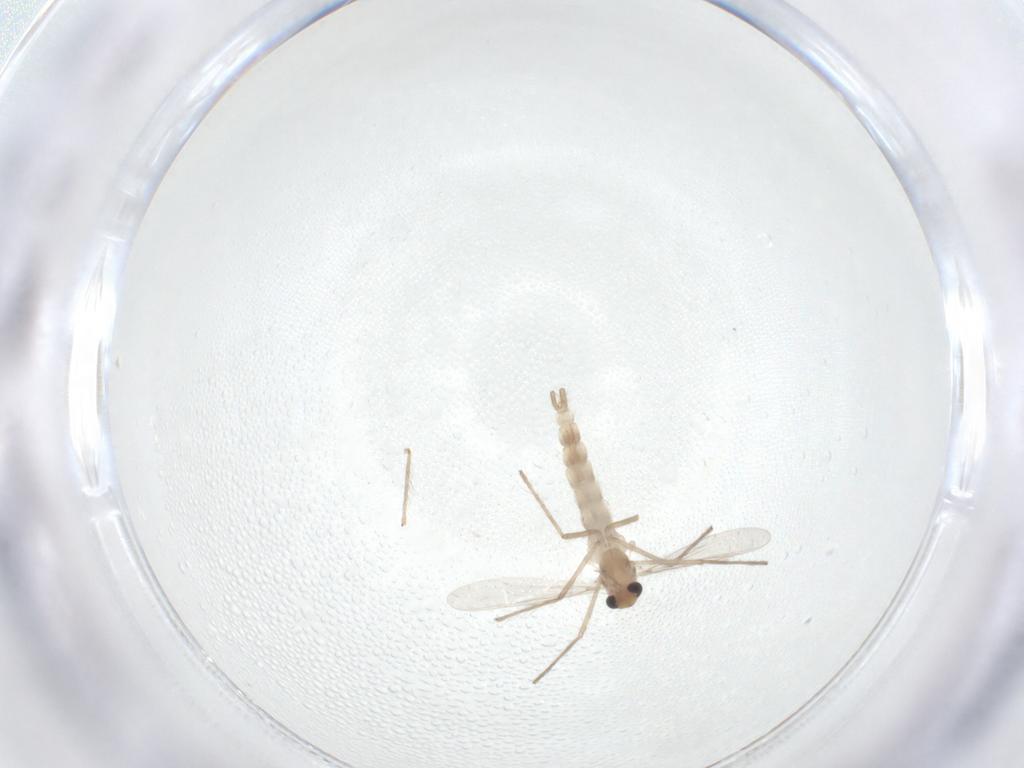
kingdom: Animalia
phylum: Arthropoda
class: Insecta
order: Diptera
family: Chironomidae
